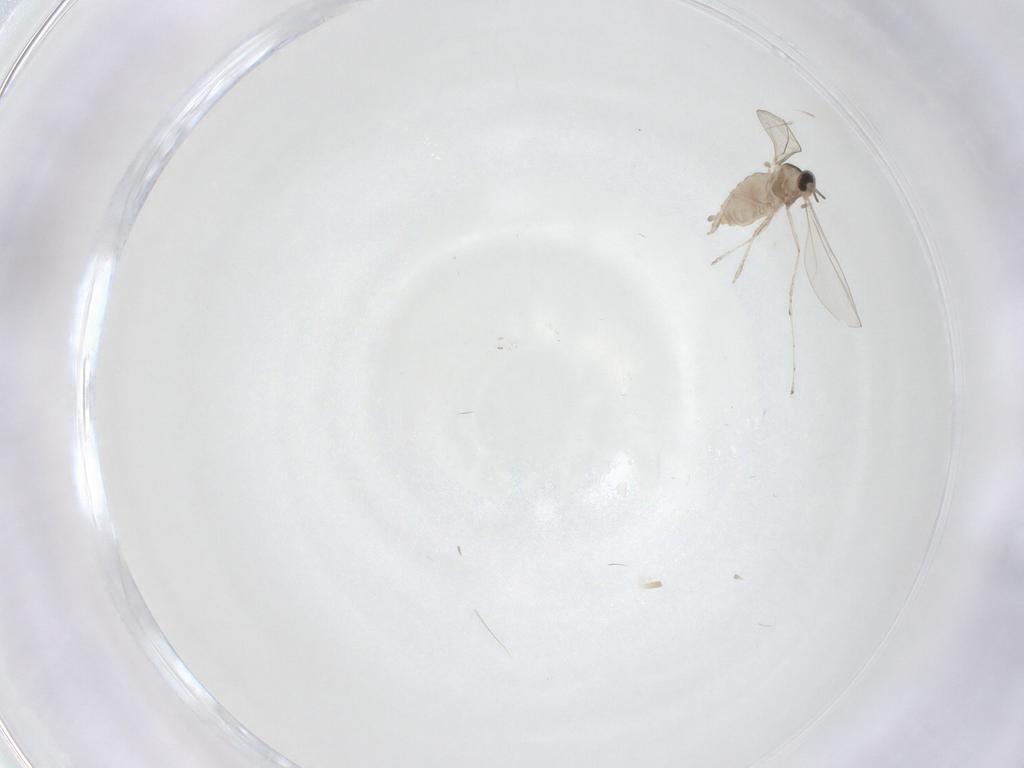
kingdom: Animalia
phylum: Arthropoda
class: Insecta
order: Diptera
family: Cecidomyiidae
